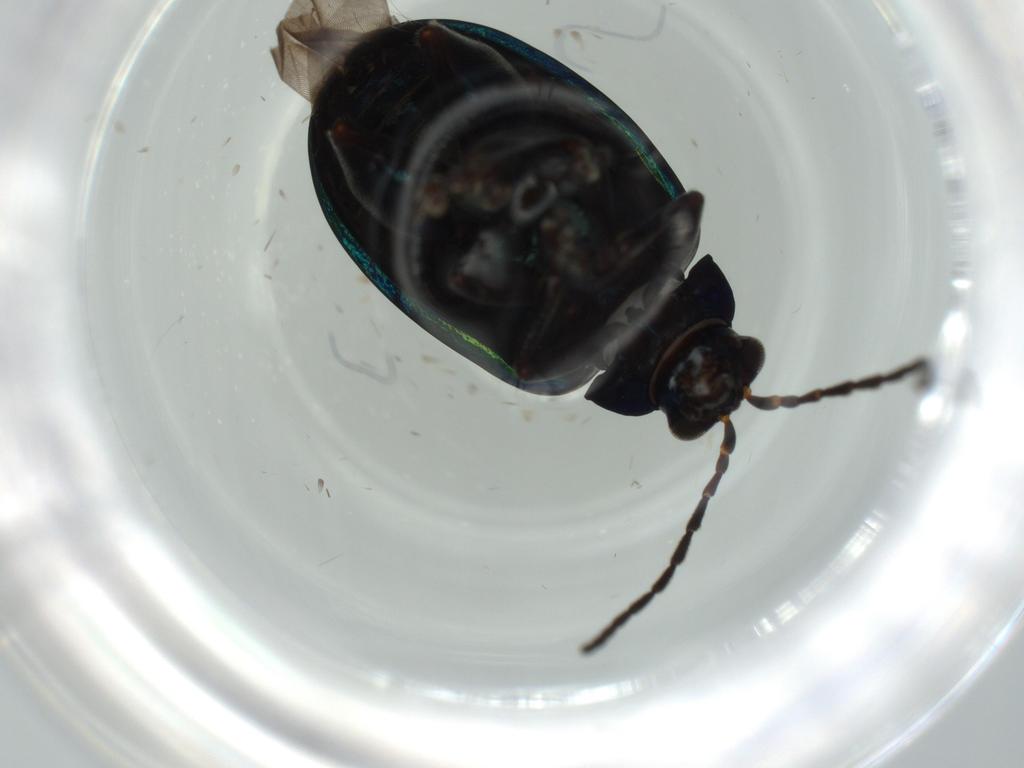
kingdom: Animalia
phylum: Arthropoda
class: Insecta
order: Coleoptera
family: Chrysomelidae
